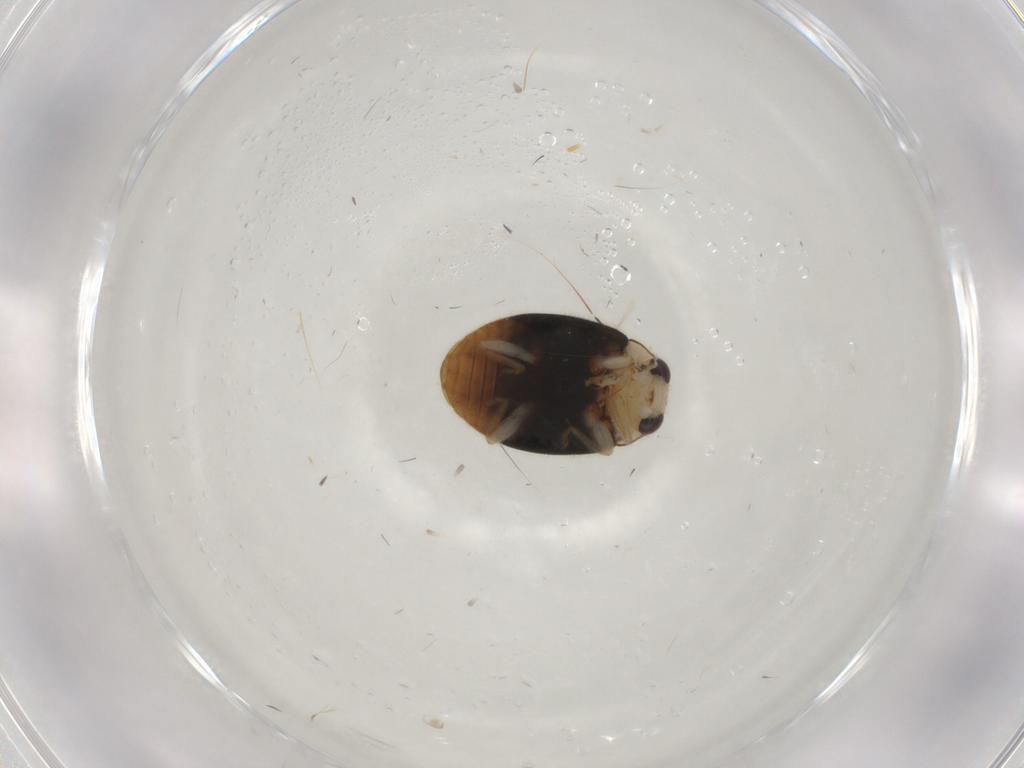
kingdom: Animalia
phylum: Arthropoda
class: Insecta
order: Coleoptera
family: Coccinellidae
